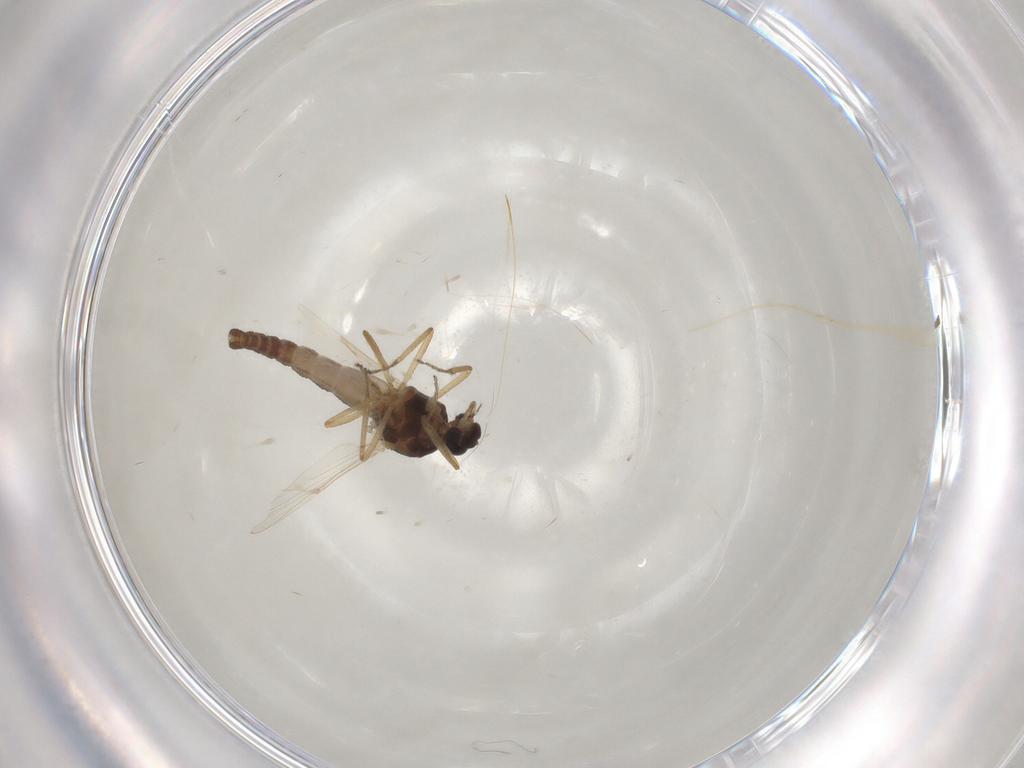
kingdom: Animalia
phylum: Arthropoda
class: Insecta
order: Diptera
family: Ceratopogonidae
